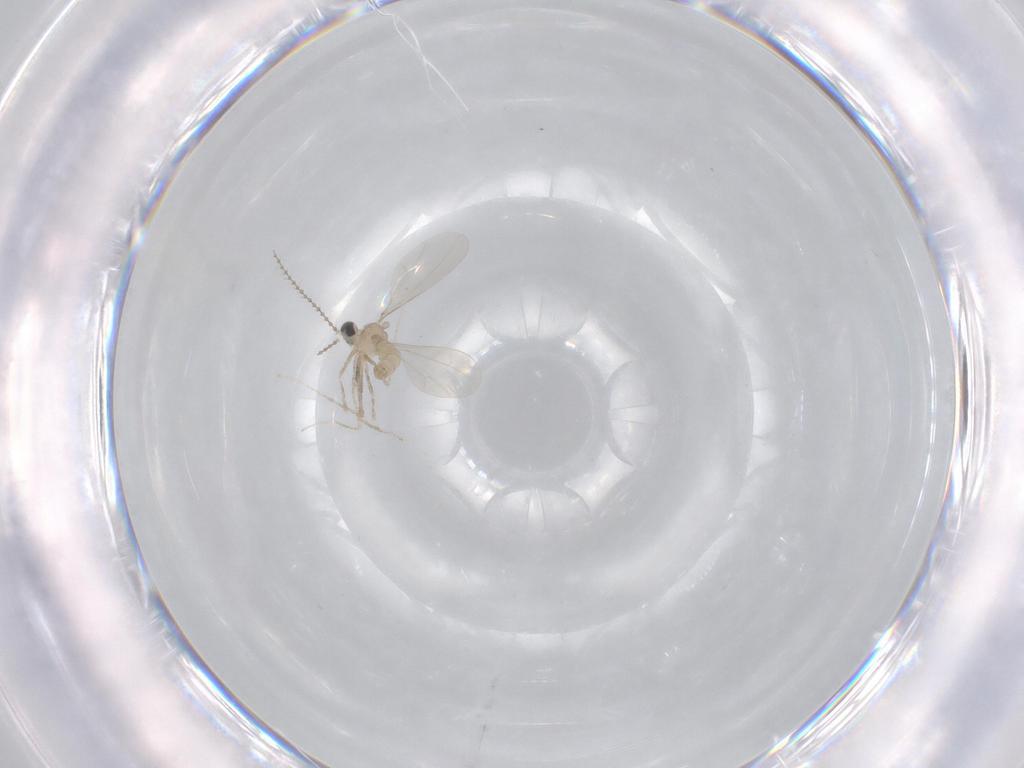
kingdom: Animalia
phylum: Arthropoda
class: Insecta
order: Diptera
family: Cecidomyiidae
